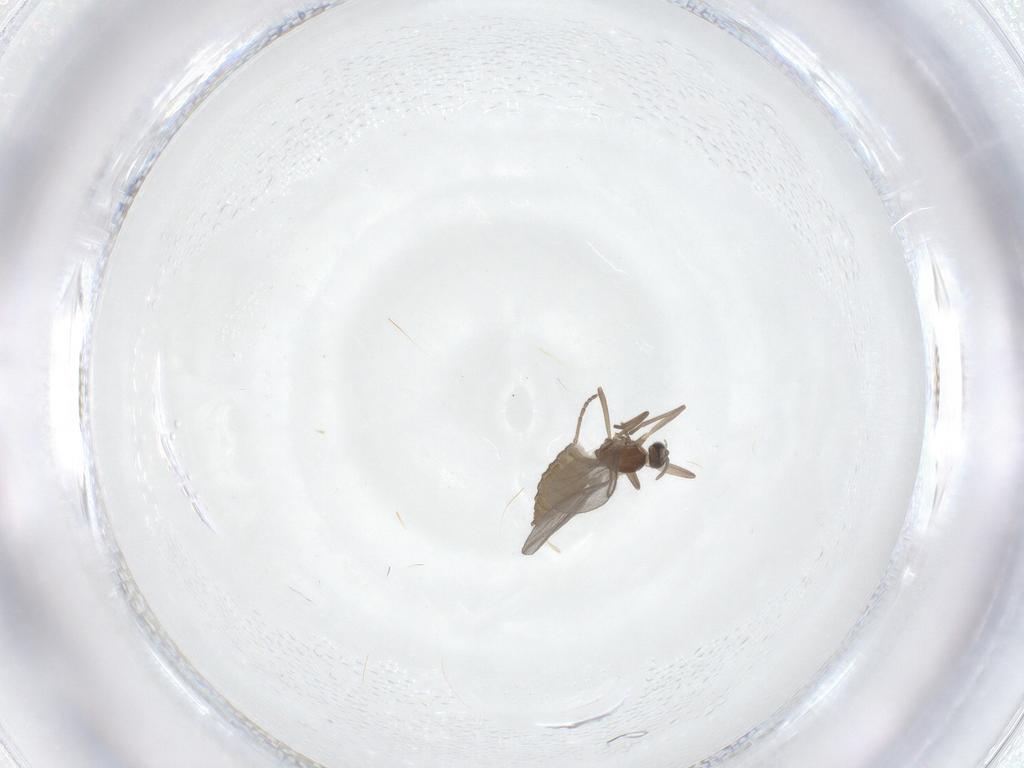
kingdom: Animalia
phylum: Arthropoda
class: Insecta
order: Diptera
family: Cecidomyiidae
